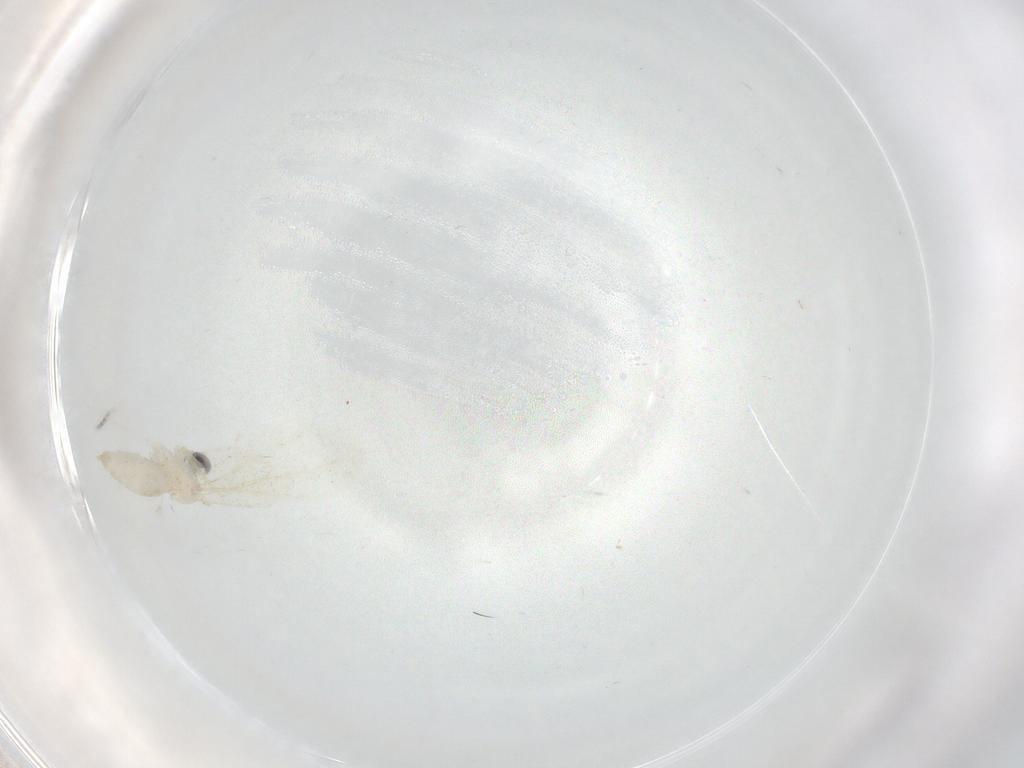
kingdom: Animalia
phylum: Arthropoda
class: Insecta
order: Diptera
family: Cecidomyiidae
